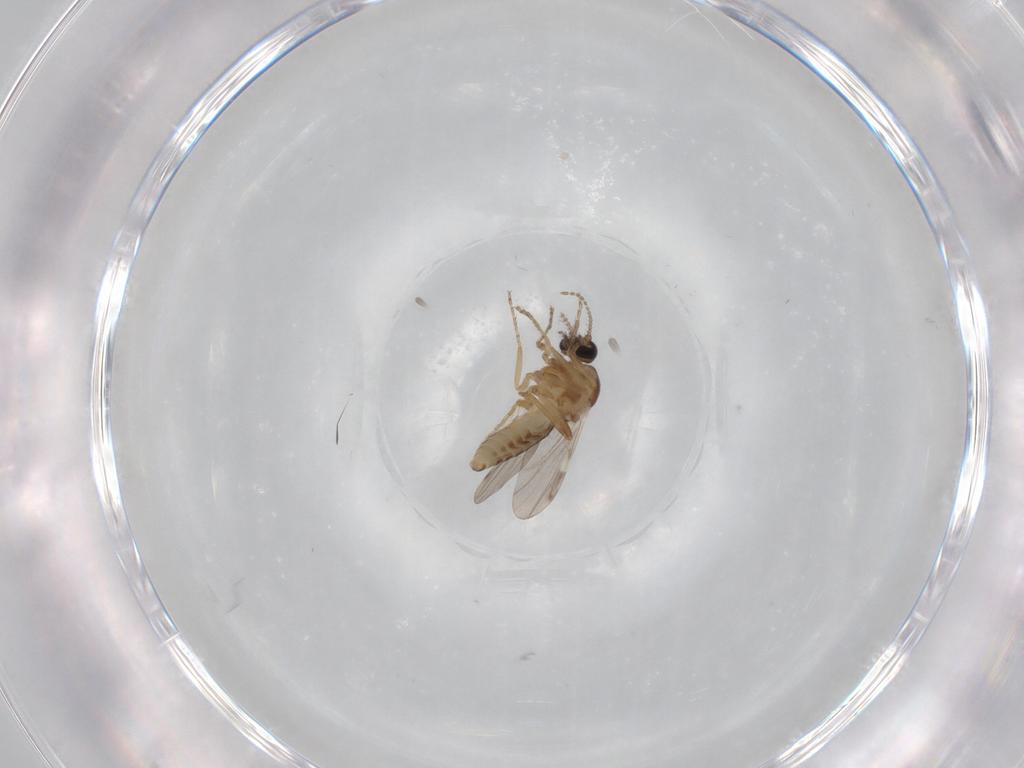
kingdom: Animalia
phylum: Arthropoda
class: Insecta
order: Diptera
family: Ceratopogonidae
